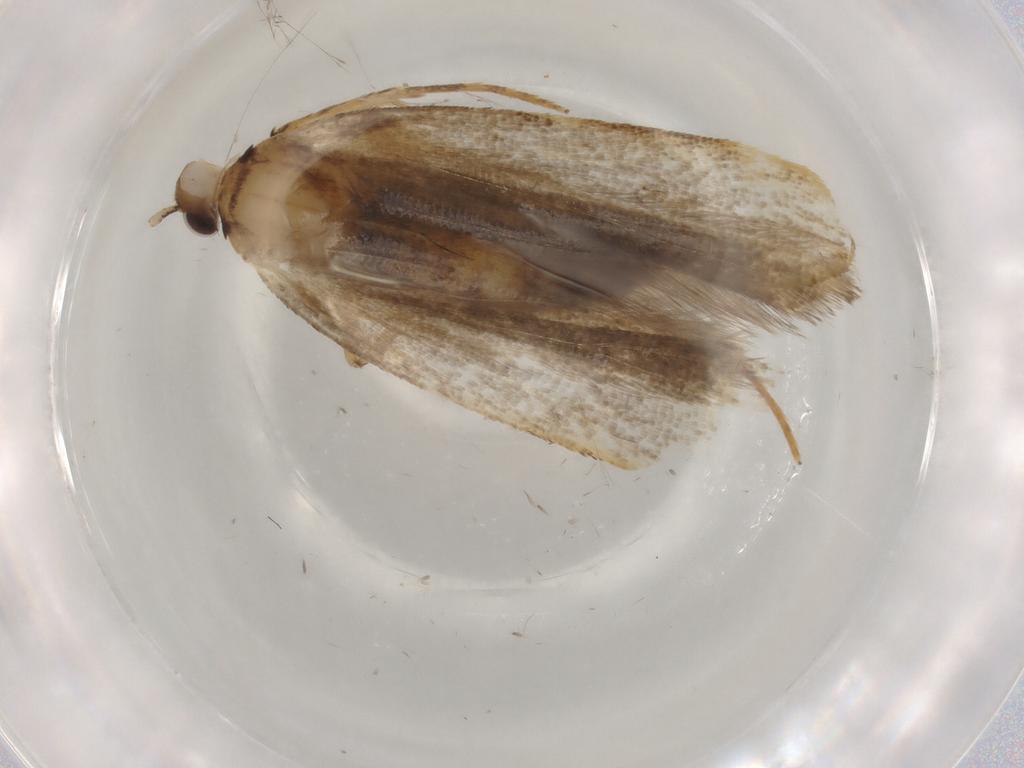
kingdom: Animalia
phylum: Arthropoda
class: Insecta
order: Lepidoptera
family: Lecithoceridae
